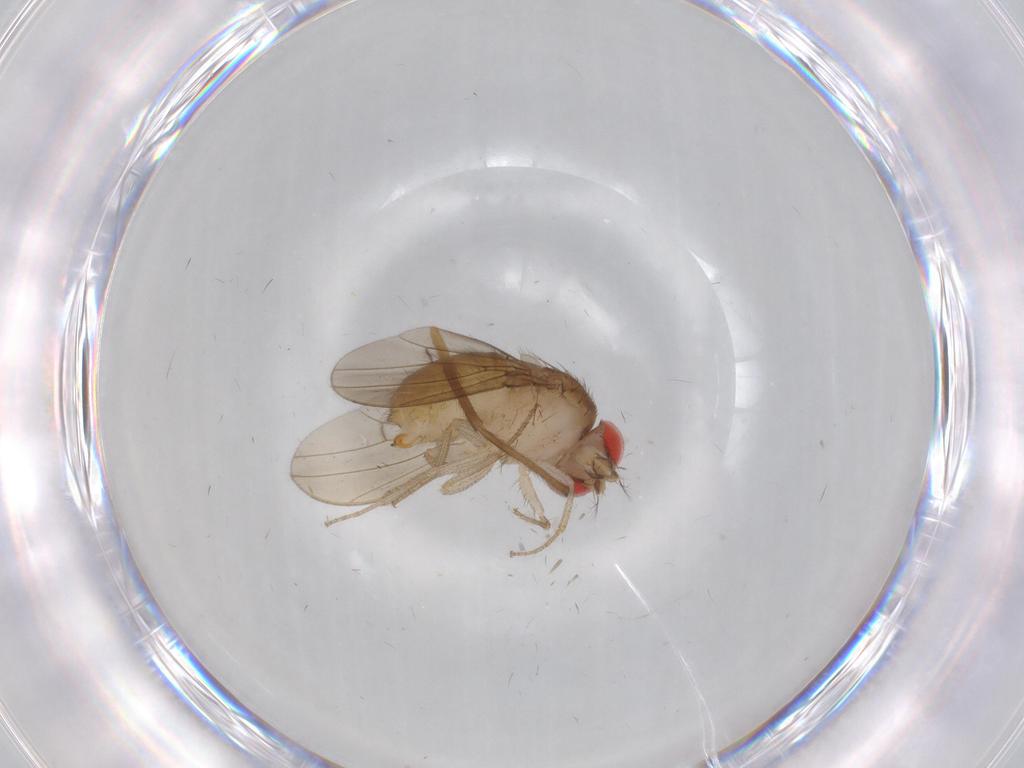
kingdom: Animalia
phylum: Arthropoda
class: Insecta
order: Diptera
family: Drosophilidae
